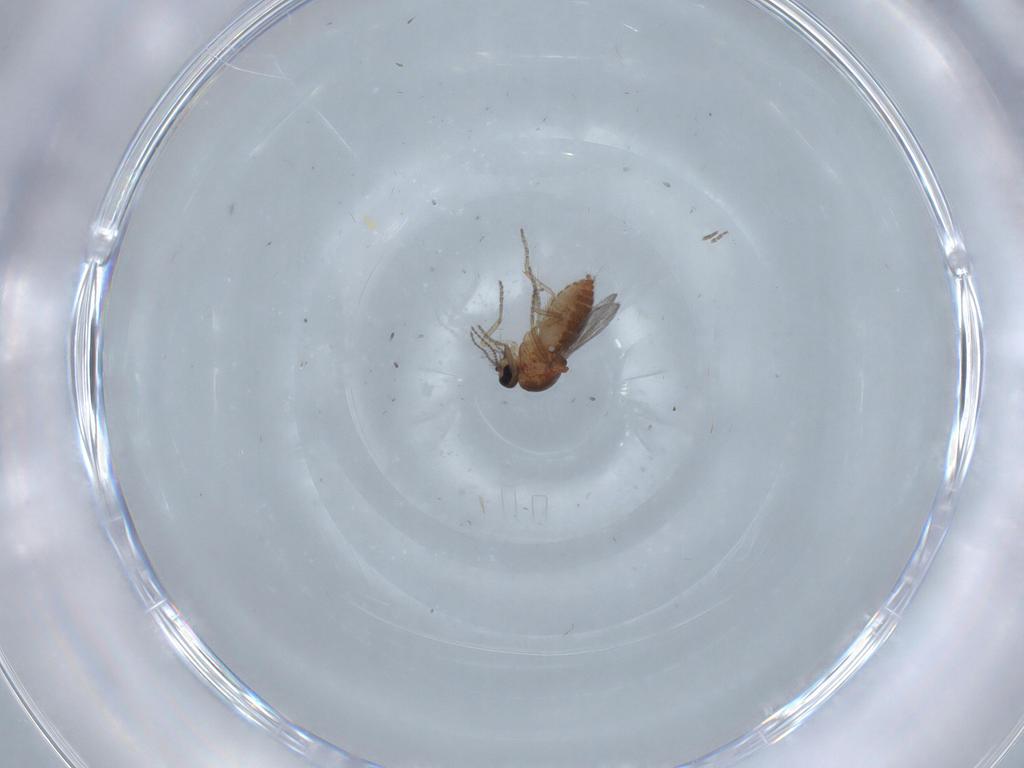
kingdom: Animalia
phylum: Arthropoda
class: Insecta
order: Diptera
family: Ceratopogonidae
